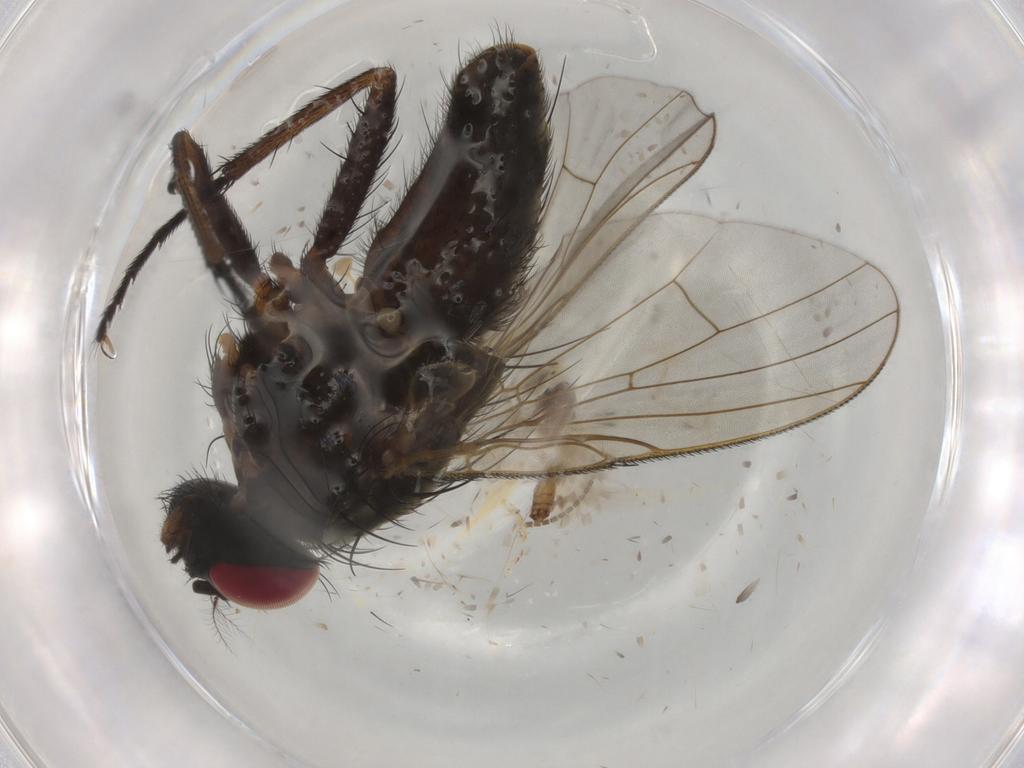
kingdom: Animalia
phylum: Arthropoda
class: Insecta
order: Diptera
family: Muscidae
